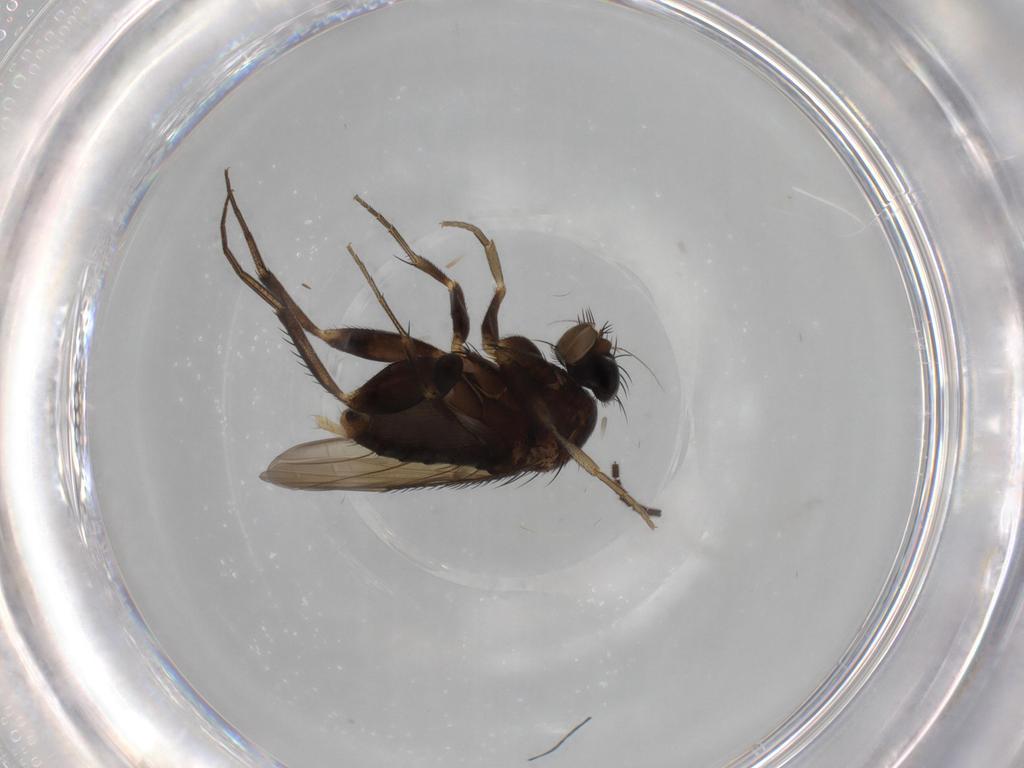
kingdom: Animalia
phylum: Arthropoda
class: Insecta
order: Diptera
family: Phoridae
